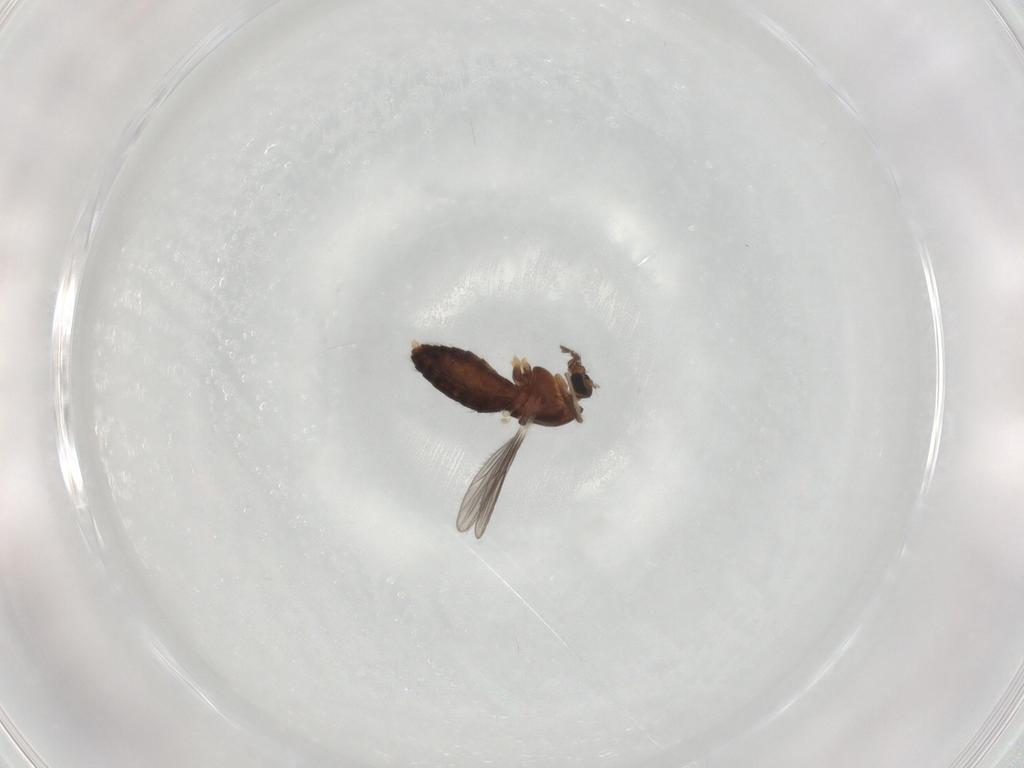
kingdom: Animalia
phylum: Arthropoda
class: Insecta
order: Diptera
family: Chironomidae
